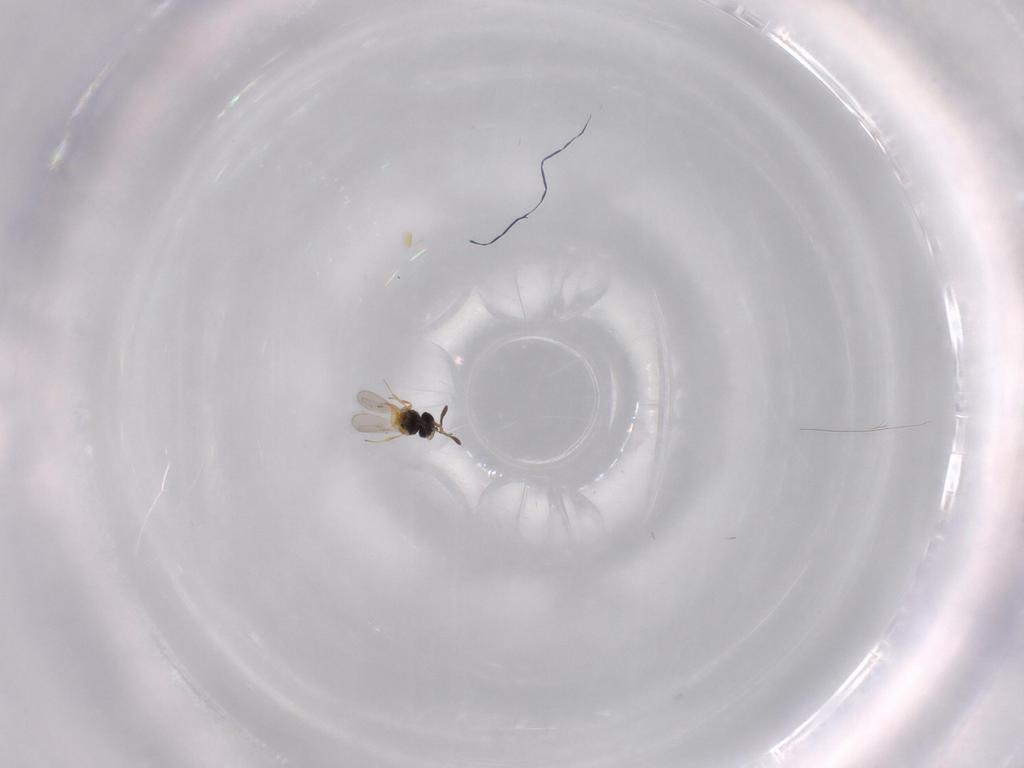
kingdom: Animalia
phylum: Arthropoda
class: Insecta
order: Hymenoptera
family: Scelionidae
